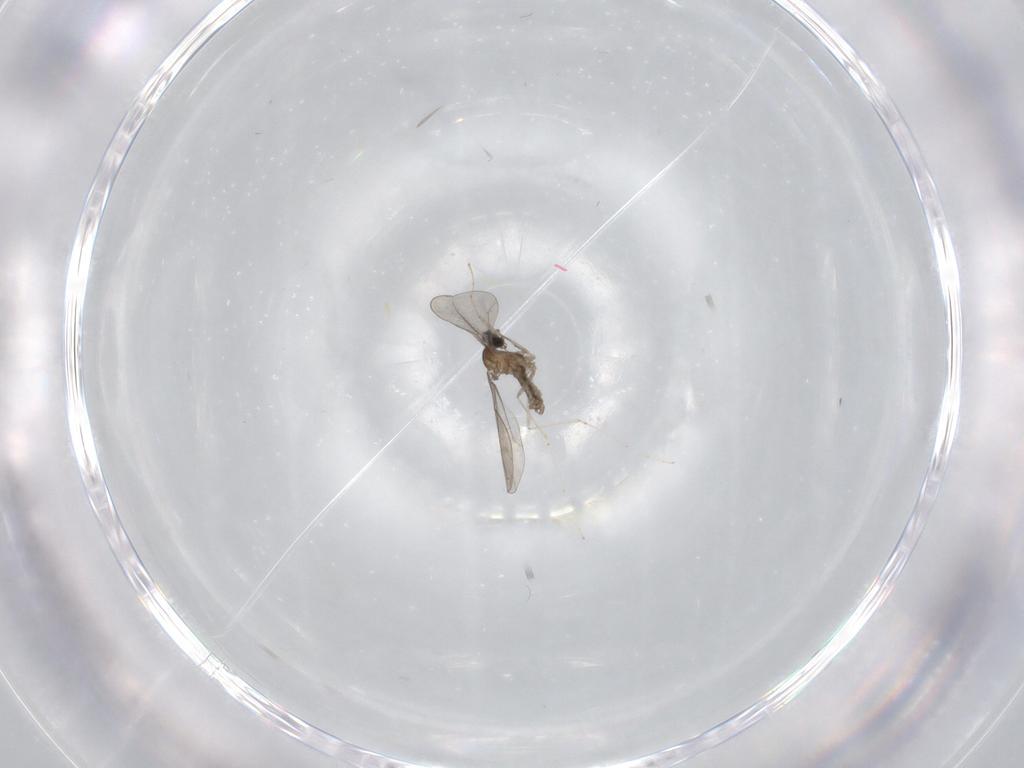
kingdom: Animalia
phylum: Arthropoda
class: Insecta
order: Diptera
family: Cecidomyiidae
